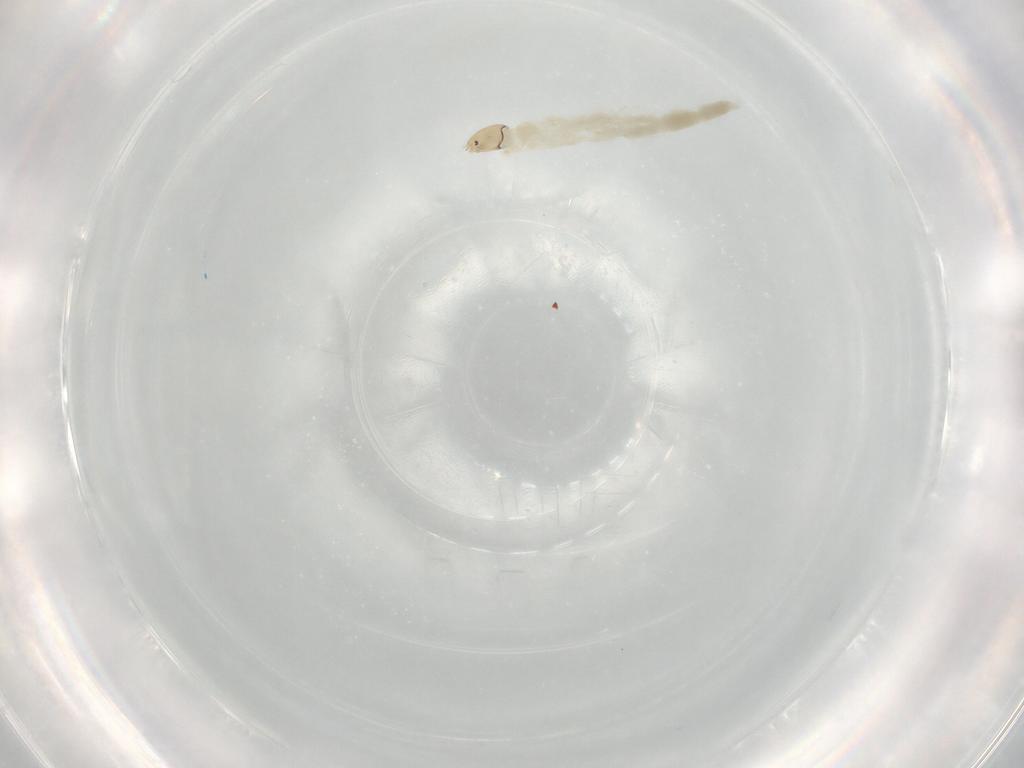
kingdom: Animalia
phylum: Arthropoda
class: Insecta
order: Diptera
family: Chironomidae
